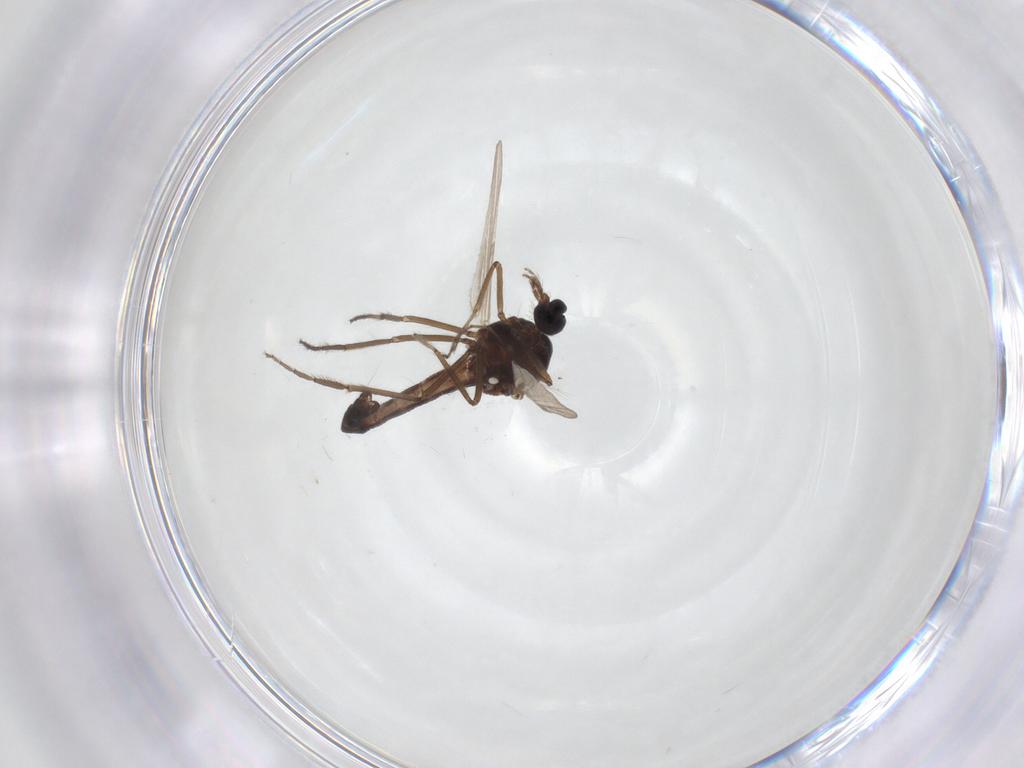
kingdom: Animalia
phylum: Arthropoda
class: Insecta
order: Diptera
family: Ceratopogonidae
